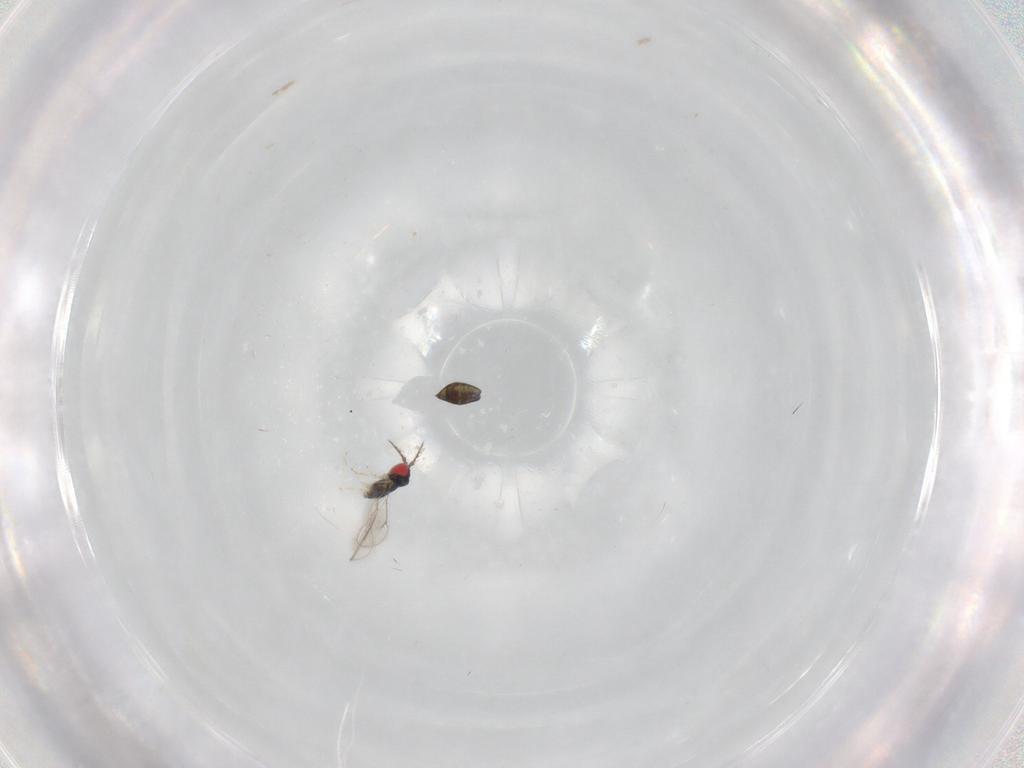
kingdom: Animalia
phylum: Arthropoda
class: Insecta
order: Hymenoptera
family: Eulophidae
